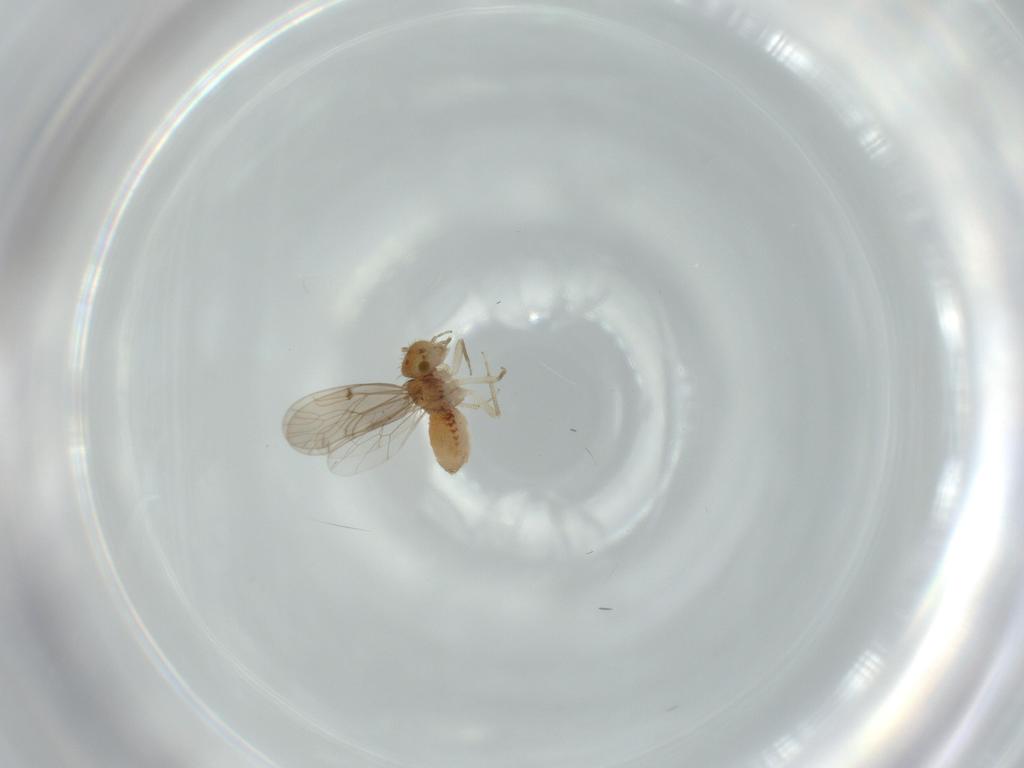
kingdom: Animalia
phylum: Arthropoda
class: Insecta
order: Psocodea
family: Ectopsocidae
